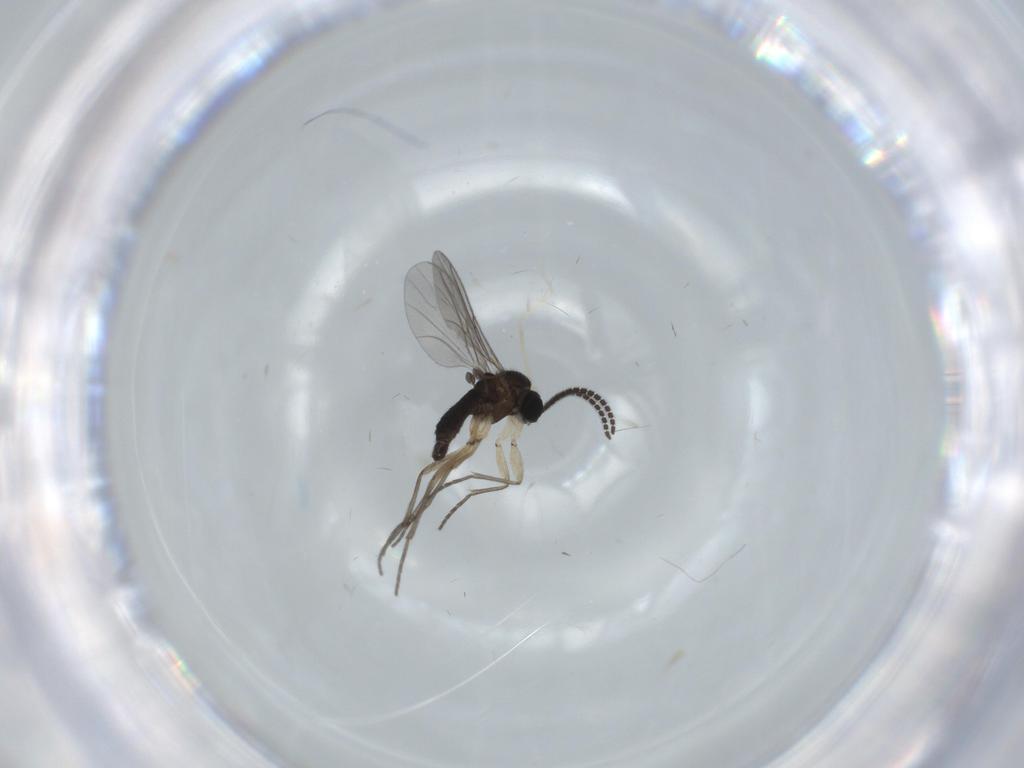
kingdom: Animalia
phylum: Arthropoda
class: Insecta
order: Diptera
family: Sciaridae
